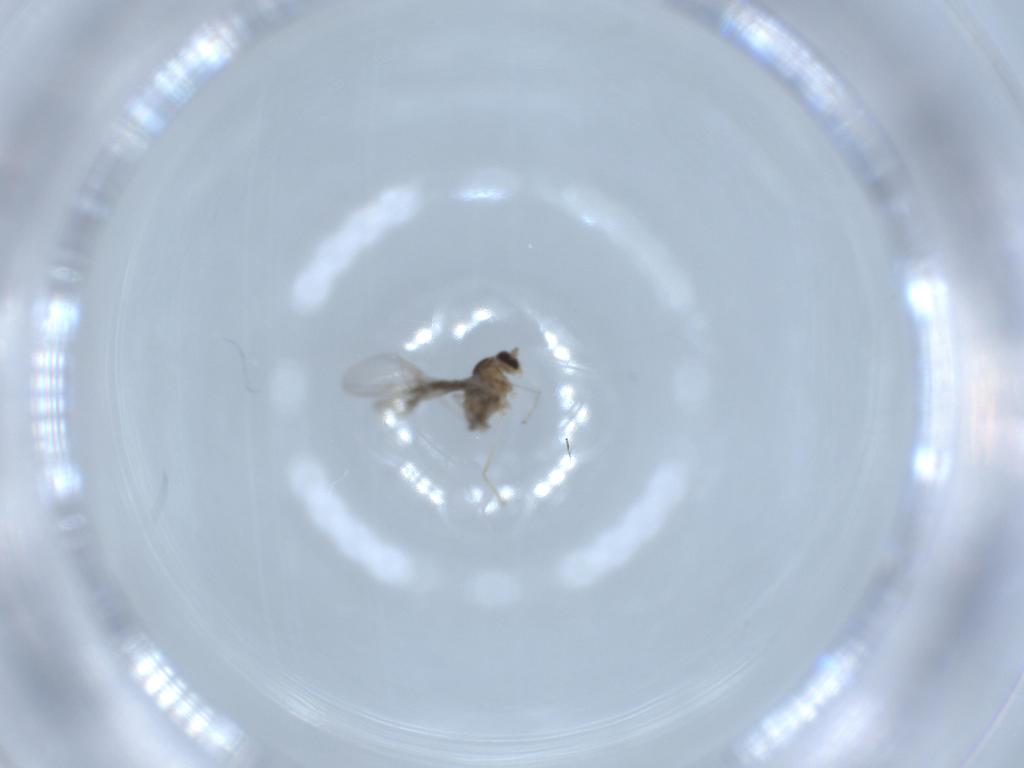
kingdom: Animalia
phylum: Arthropoda
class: Insecta
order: Diptera
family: Cecidomyiidae
